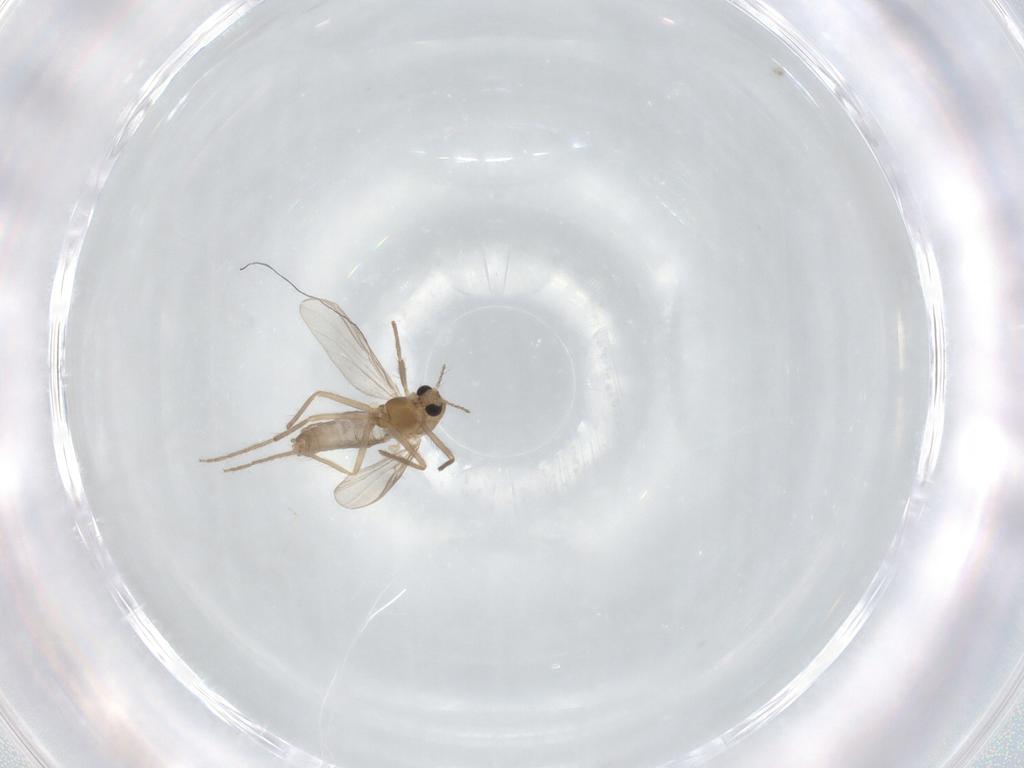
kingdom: Animalia
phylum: Arthropoda
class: Insecta
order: Diptera
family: Chironomidae
